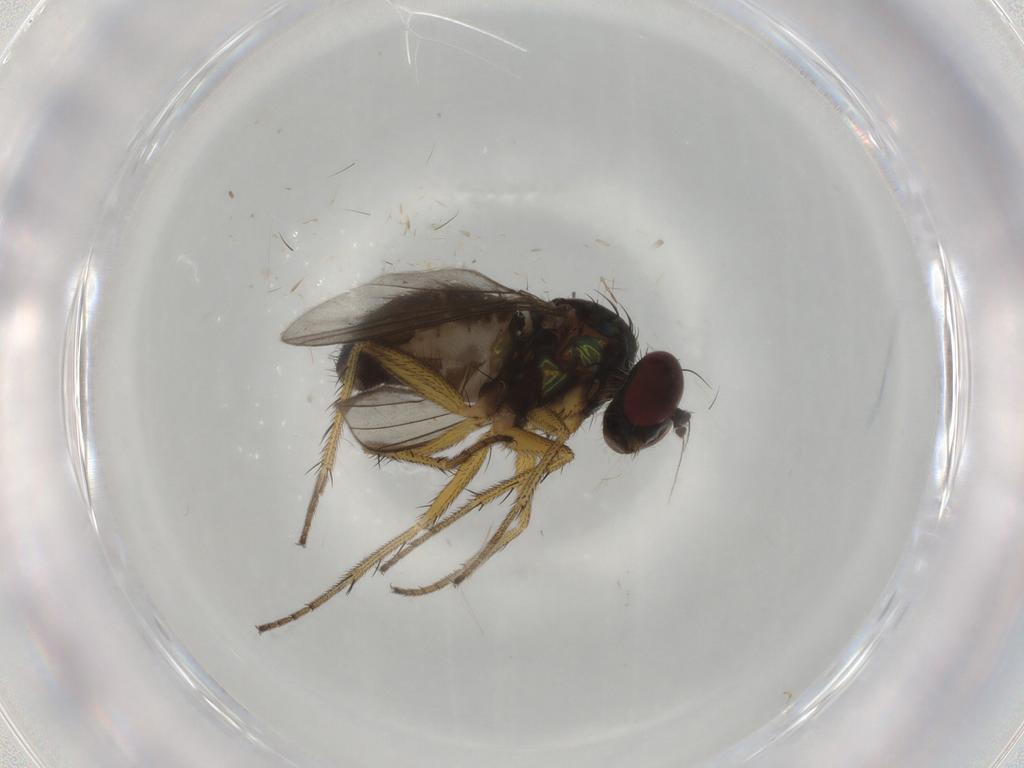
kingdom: Animalia
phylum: Arthropoda
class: Insecta
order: Diptera
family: Dolichopodidae
